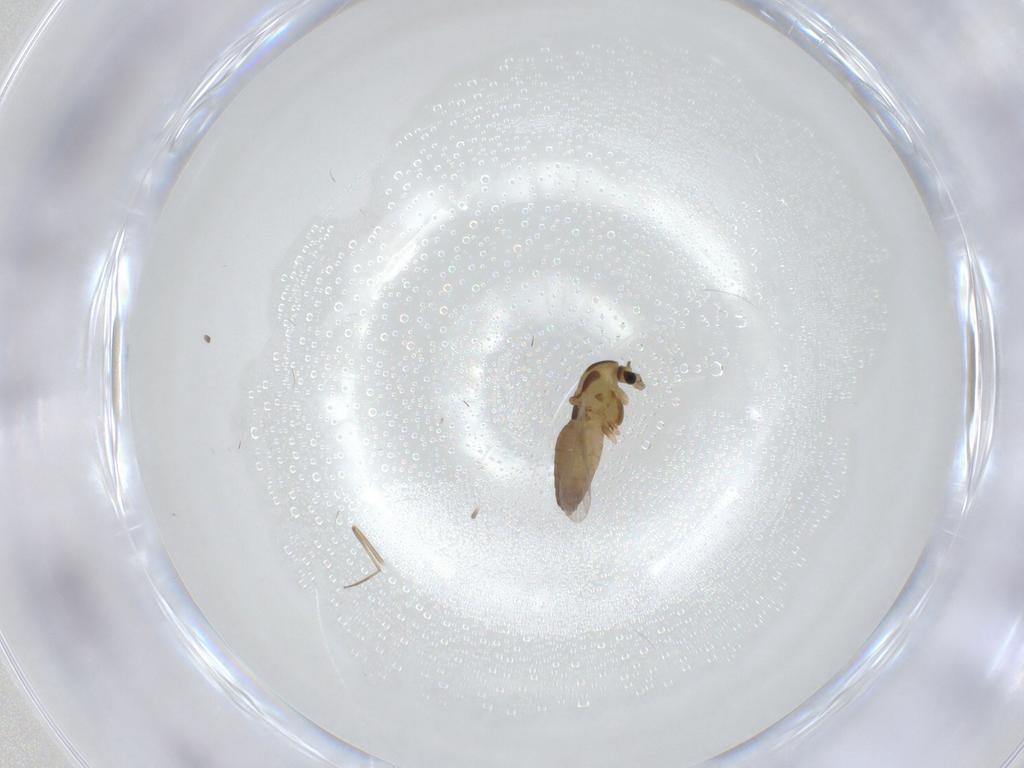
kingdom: Animalia
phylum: Arthropoda
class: Insecta
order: Diptera
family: Chironomidae
